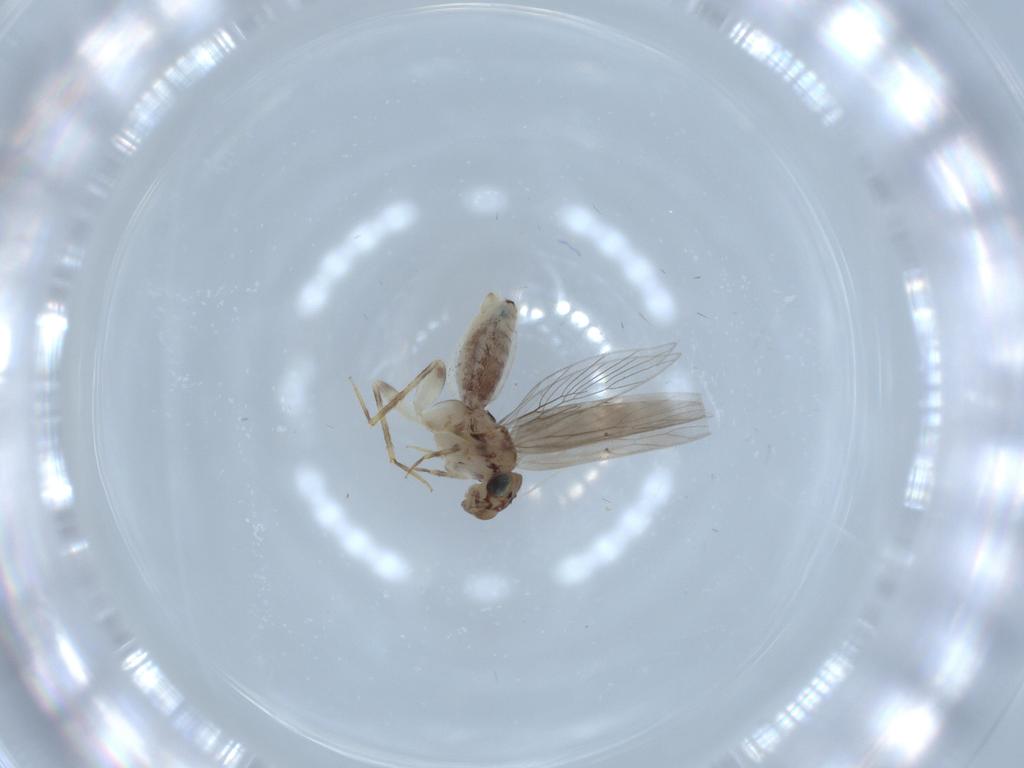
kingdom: Animalia
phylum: Arthropoda
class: Insecta
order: Psocodea
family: Lepidopsocidae
